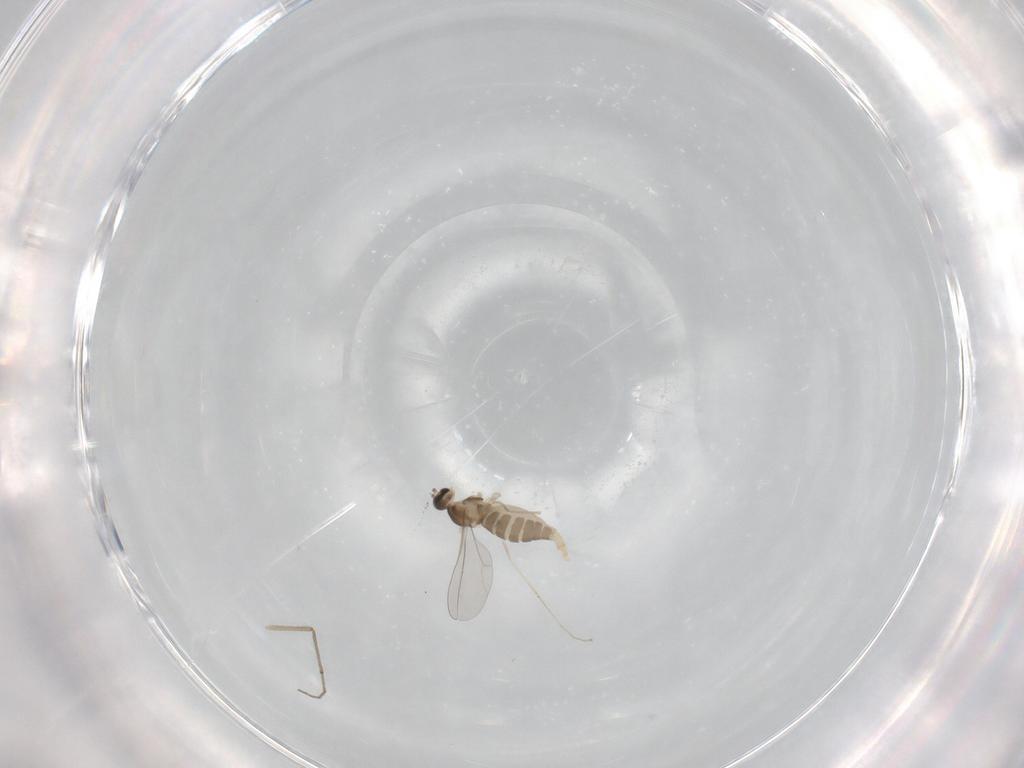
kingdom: Animalia
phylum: Arthropoda
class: Insecta
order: Diptera
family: Cecidomyiidae
